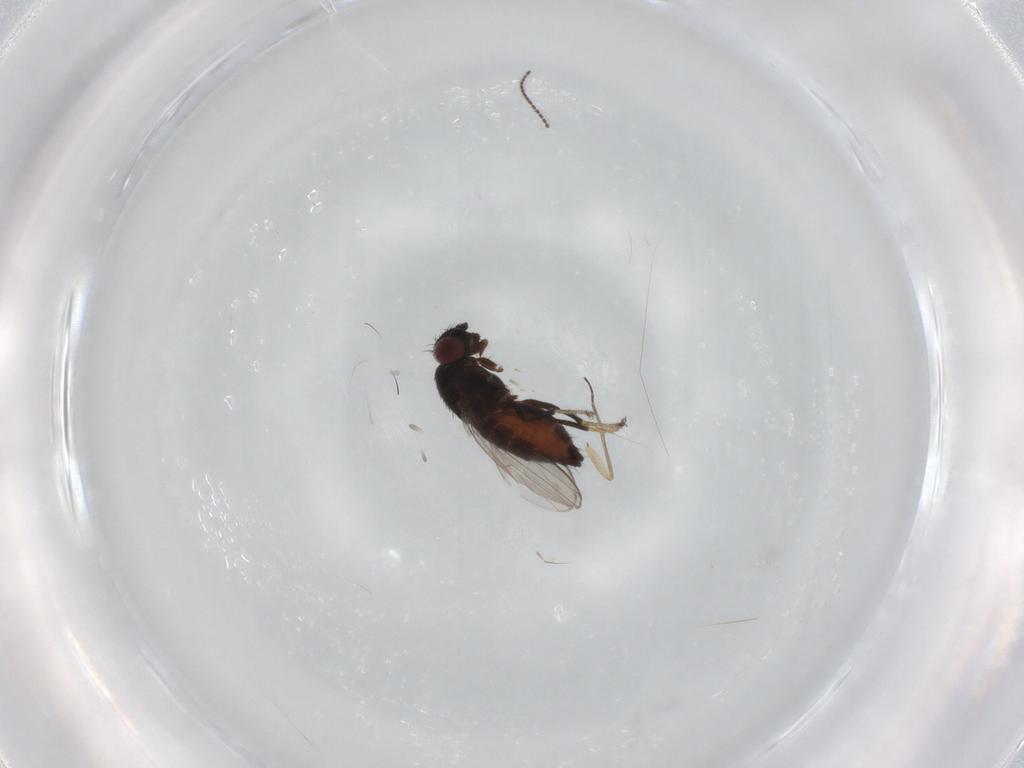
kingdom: Animalia
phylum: Arthropoda
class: Insecta
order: Diptera
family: Milichiidae
